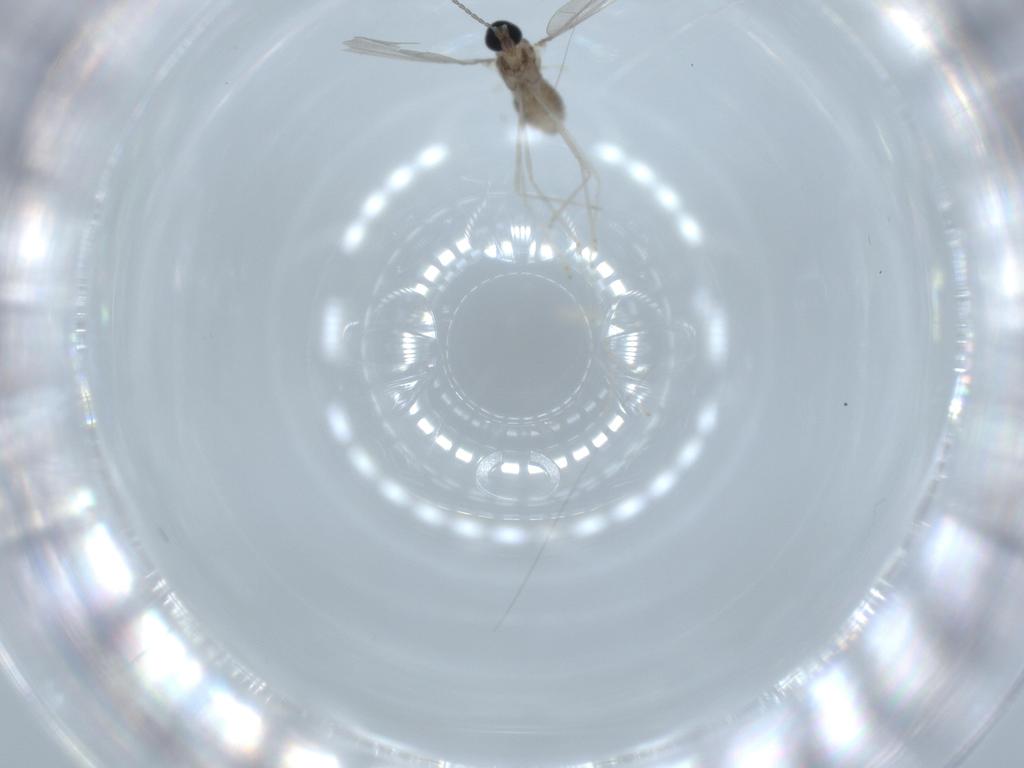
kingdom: Animalia
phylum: Arthropoda
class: Insecta
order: Diptera
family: Cecidomyiidae
